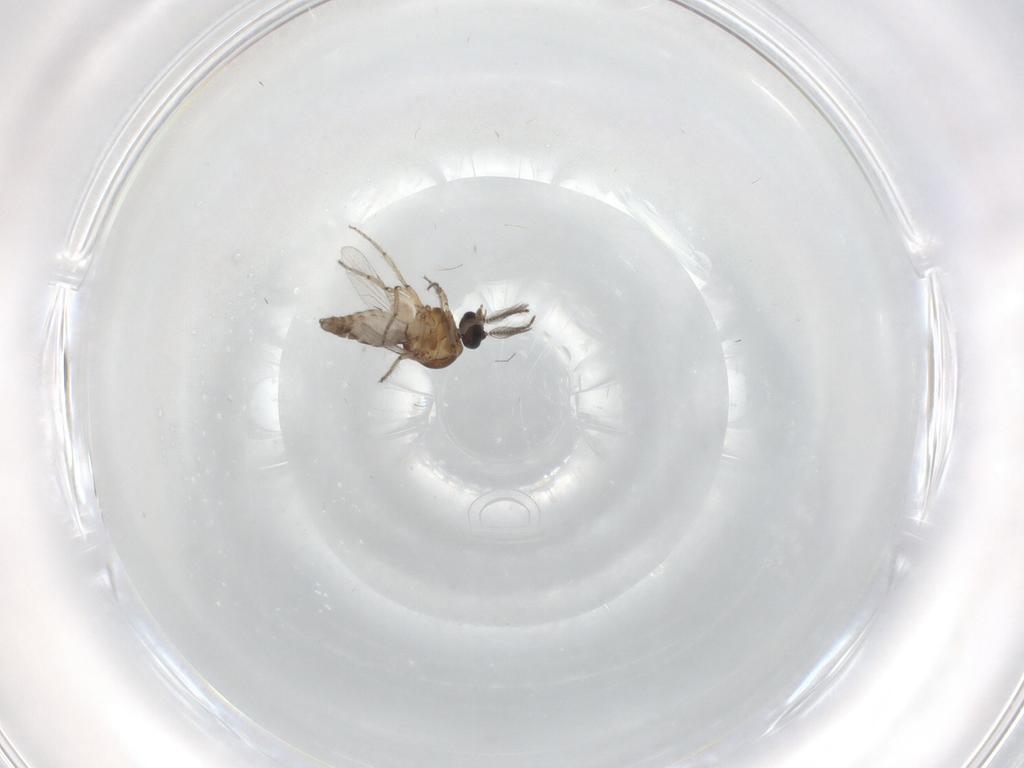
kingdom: Animalia
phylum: Arthropoda
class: Insecta
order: Diptera
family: Ceratopogonidae
